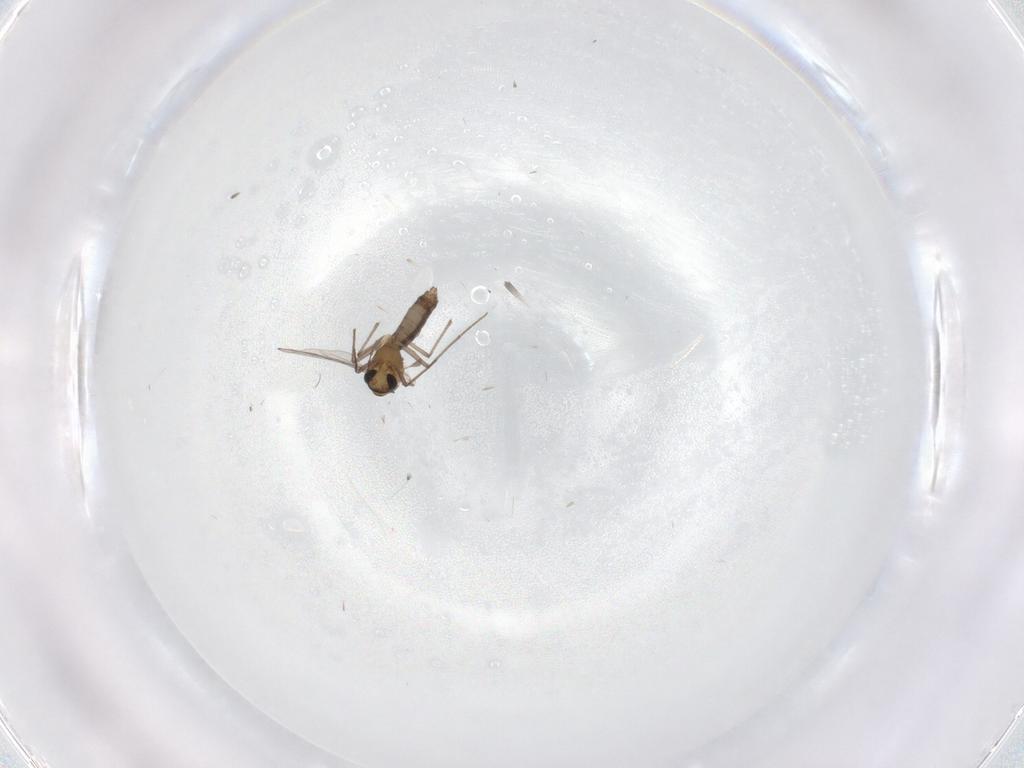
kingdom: Animalia
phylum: Arthropoda
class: Insecta
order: Diptera
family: Chironomidae
